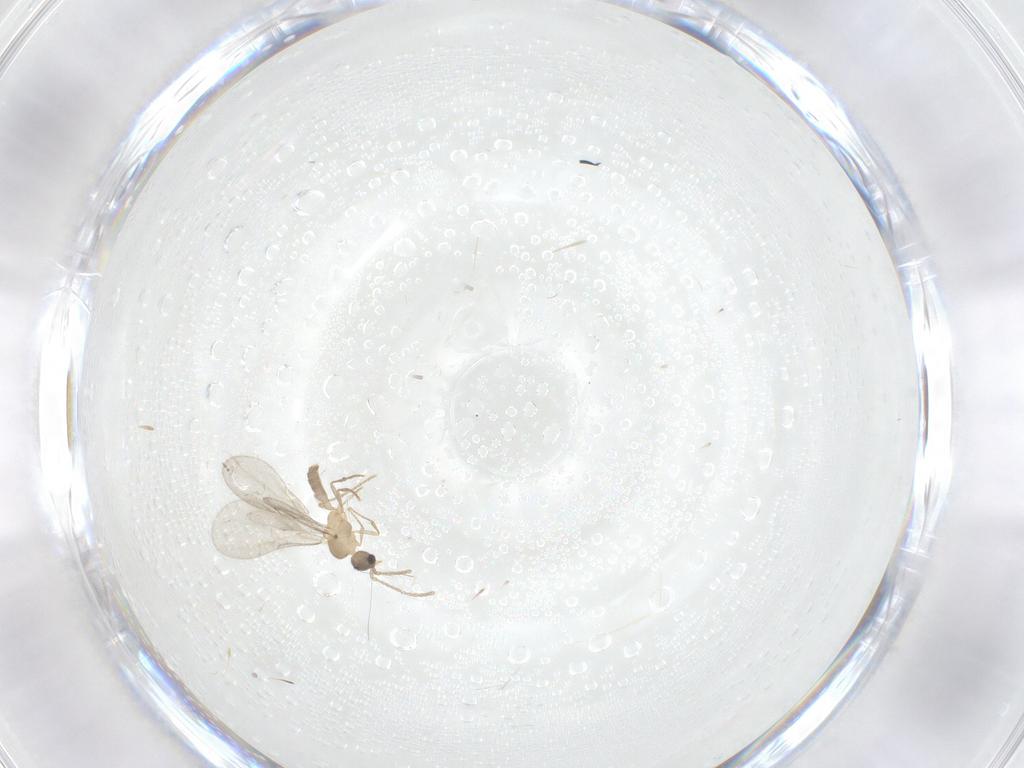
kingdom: Animalia
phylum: Arthropoda
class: Insecta
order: Hymenoptera
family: Formicidae
